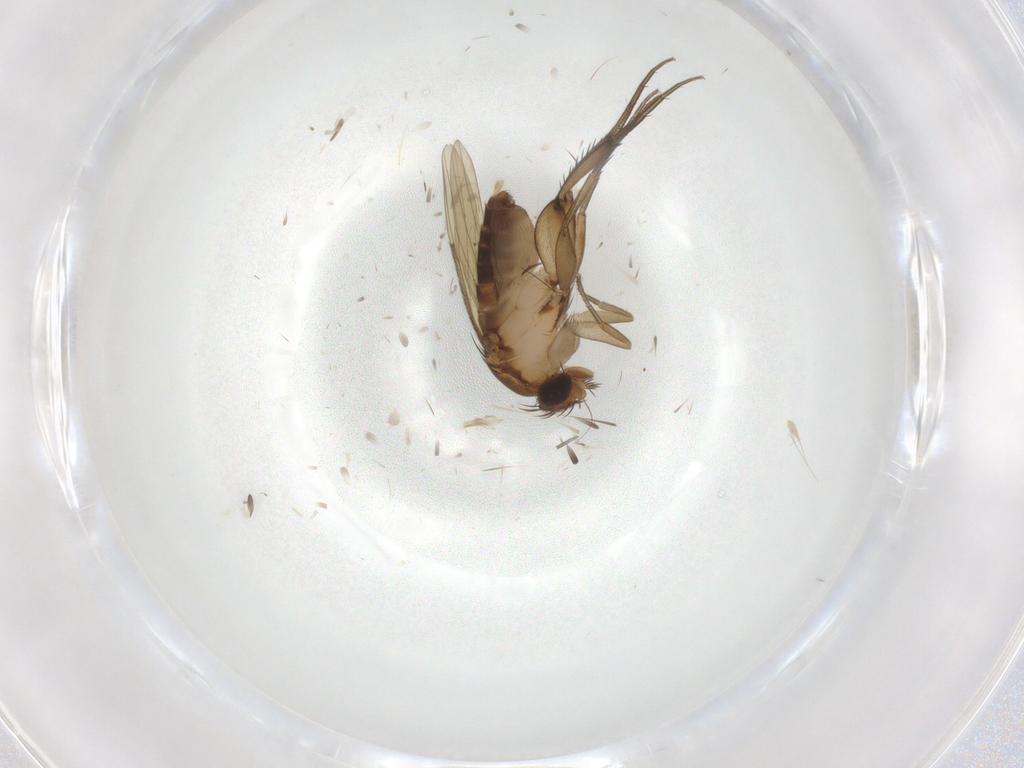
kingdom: Animalia
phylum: Arthropoda
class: Insecta
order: Diptera
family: Phoridae
